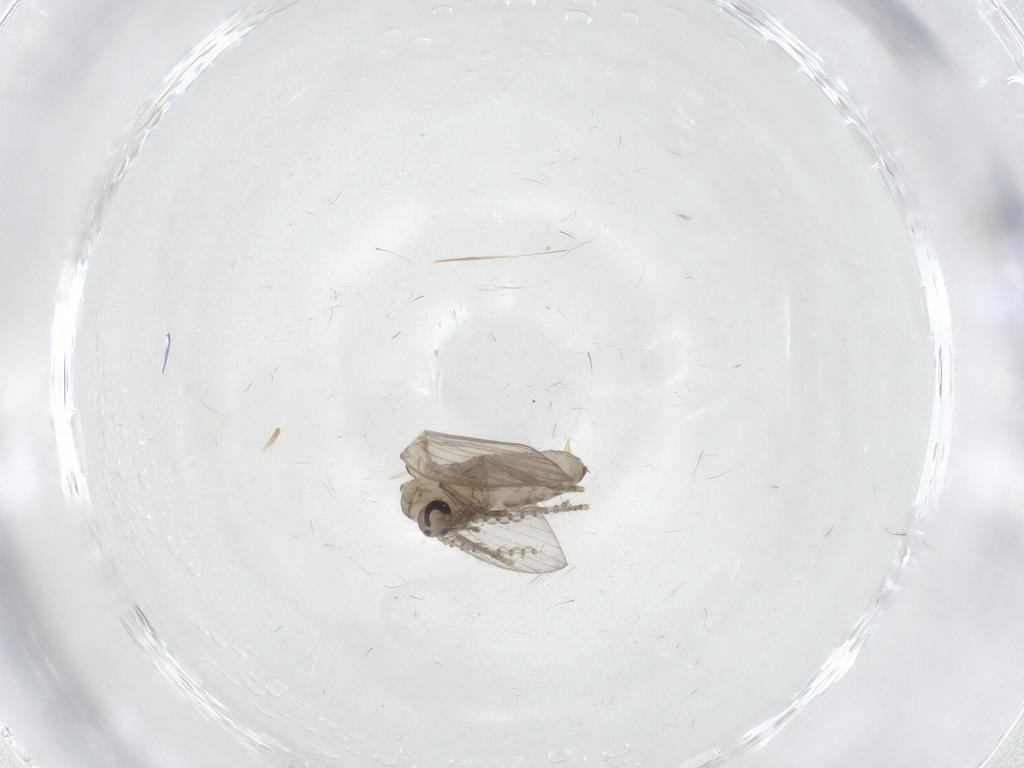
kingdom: Animalia
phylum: Arthropoda
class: Insecta
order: Diptera
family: Psychodidae
